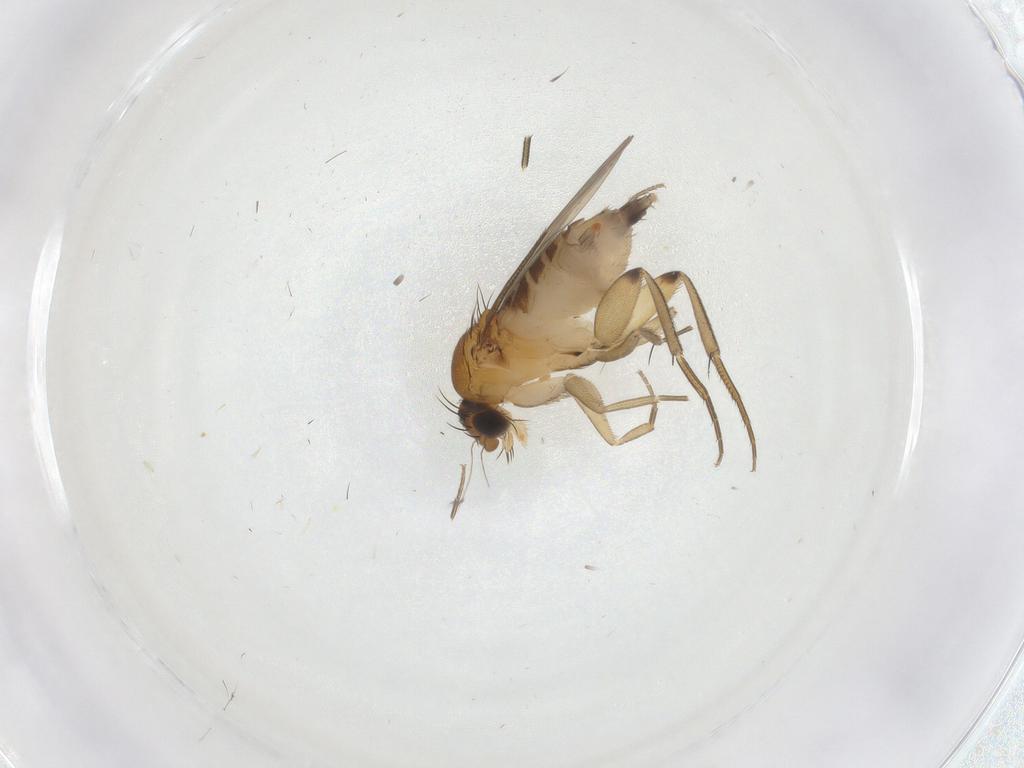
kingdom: Animalia
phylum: Arthropoda
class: Insecta
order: Diptera
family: Phoridae
